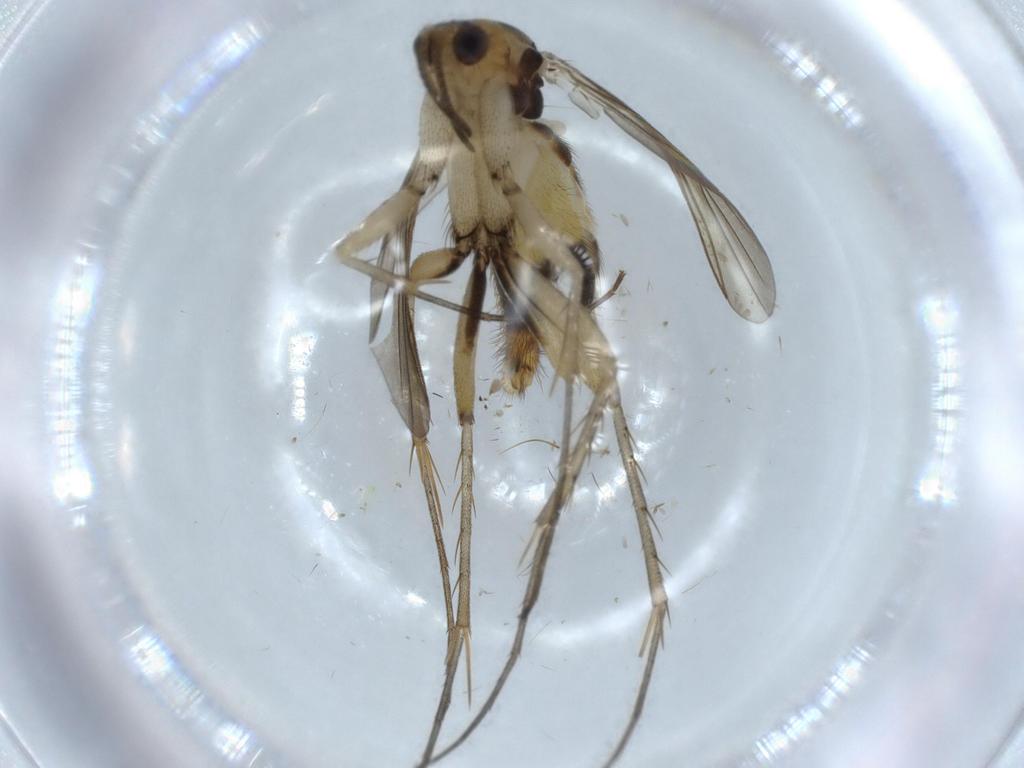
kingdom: Animalia
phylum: Arthropoda
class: Insecta
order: Diptera
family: Mycetophilidae
